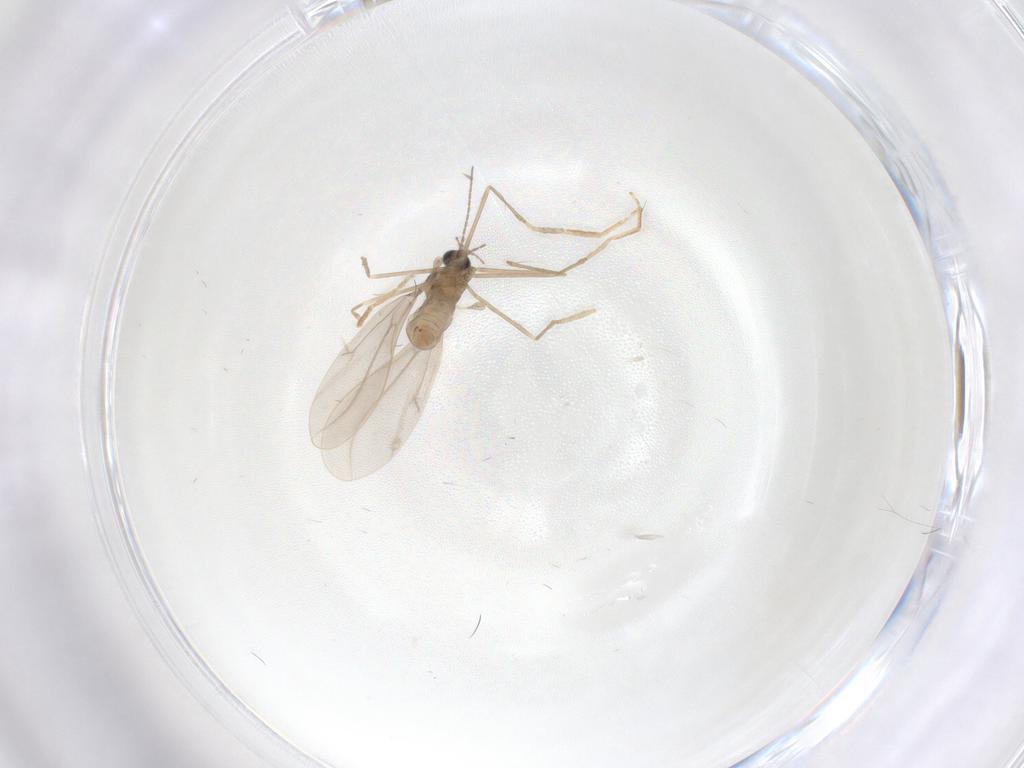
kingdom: Animalia
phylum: Arthropoda
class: Insecta
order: Diptera
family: Cecidomyiidae
